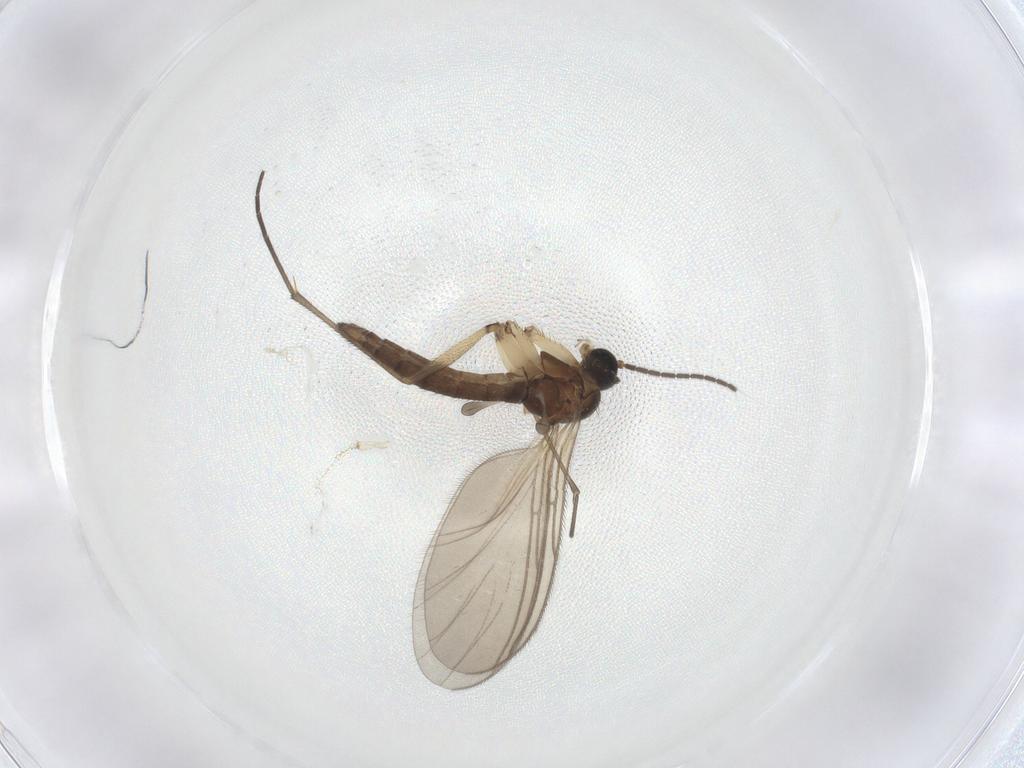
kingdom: Animalia
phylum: Arthropoda
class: Insecta
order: Diptera
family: Sciaridae
